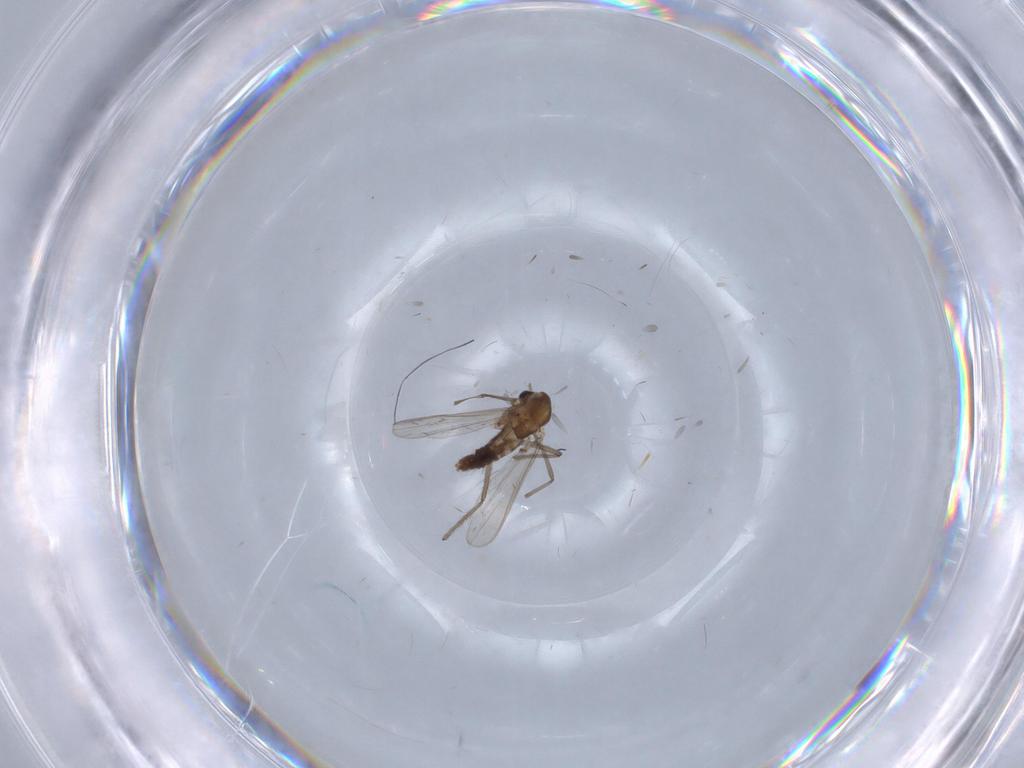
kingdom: Animalia
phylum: Arthropoda
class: Insecta
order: Diptera
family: Chironomidae
